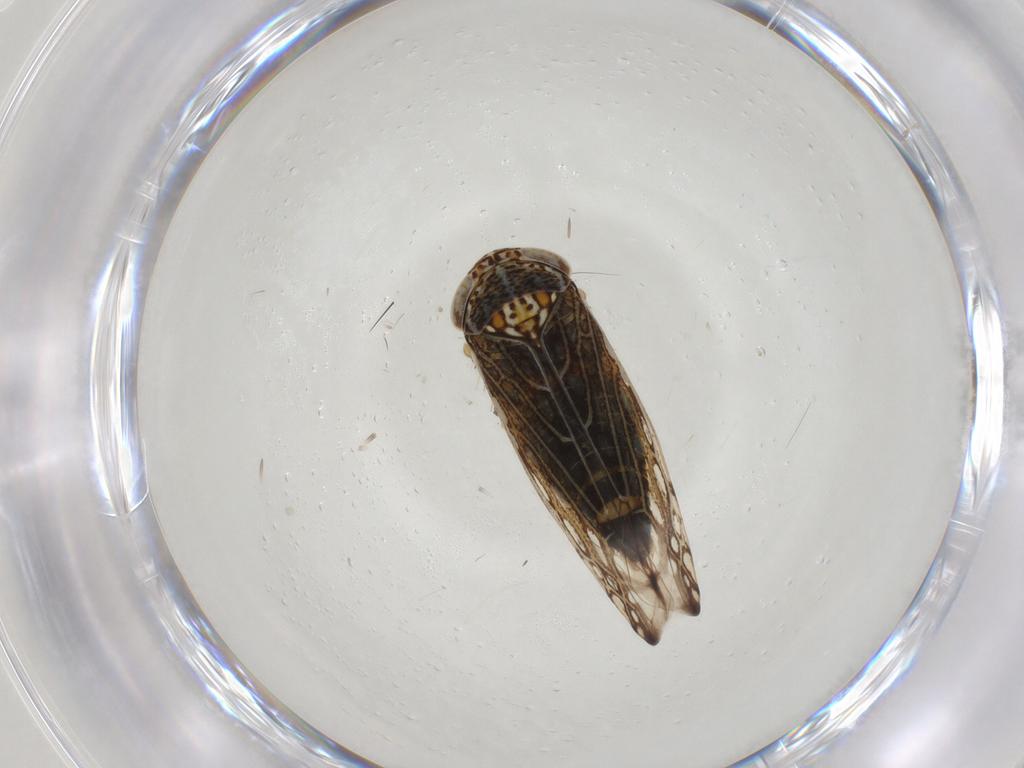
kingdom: Animalia
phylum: Arthropoda
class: Insecta
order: Hemiptera
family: Cicadellidae
